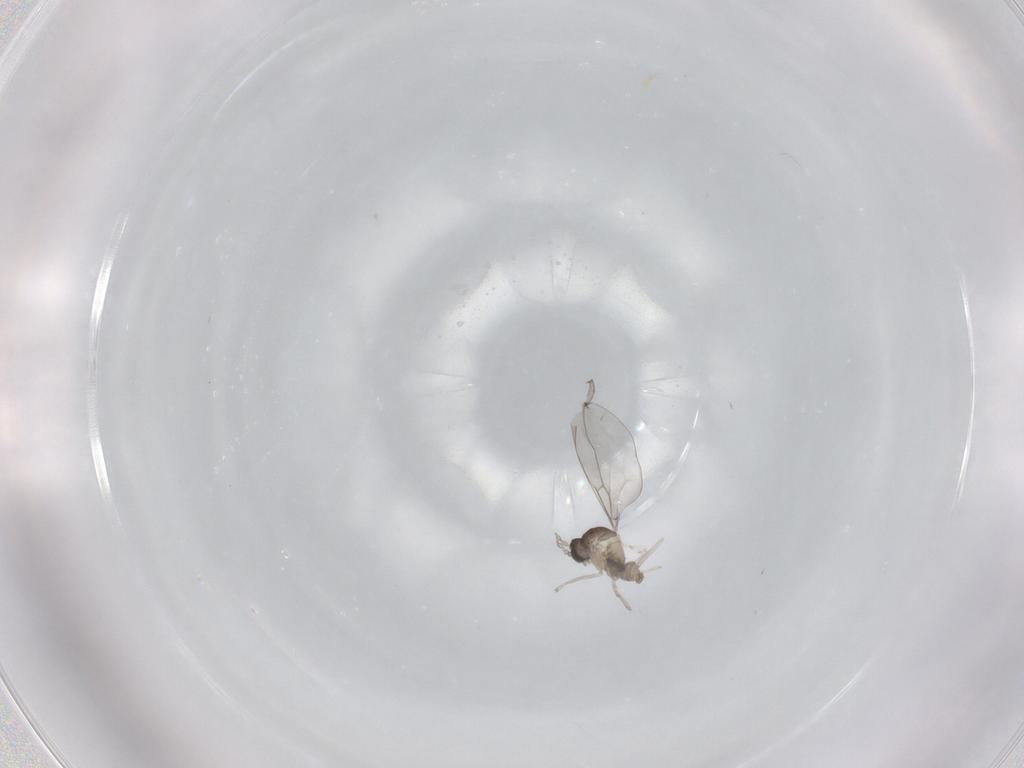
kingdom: Animalia
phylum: Arthropoda
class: Insecta
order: Diptera
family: Cecidomyiidae
